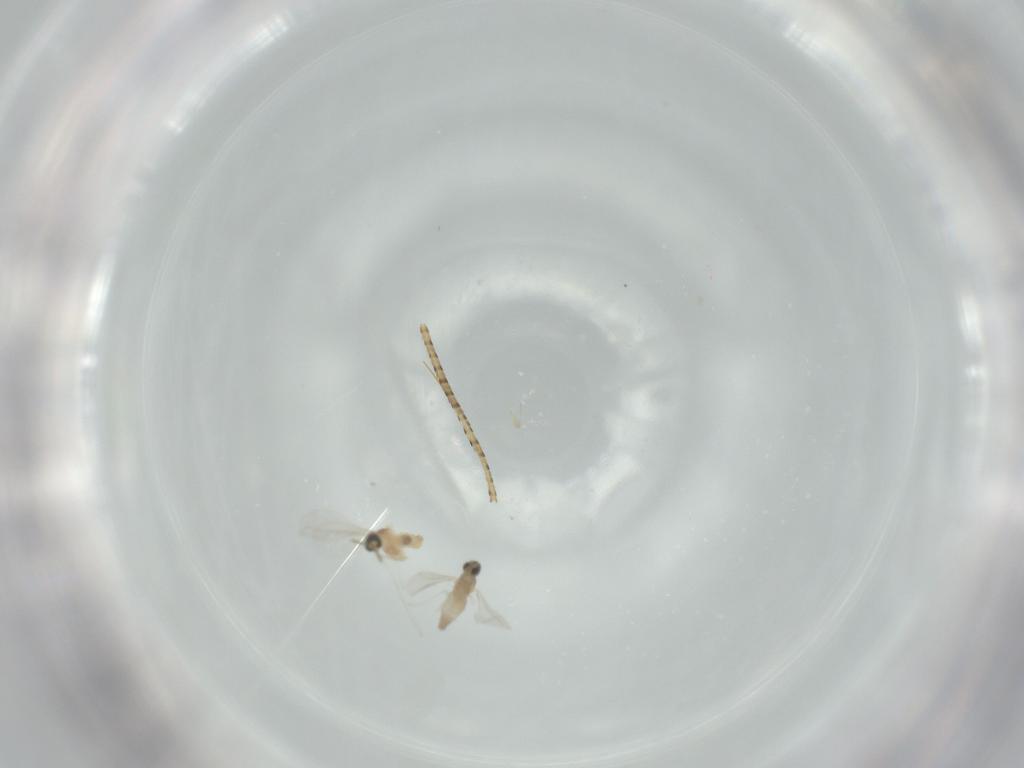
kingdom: Animalia
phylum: Arthropoda
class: Insecta
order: Diptera
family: Cecidomyiidae
